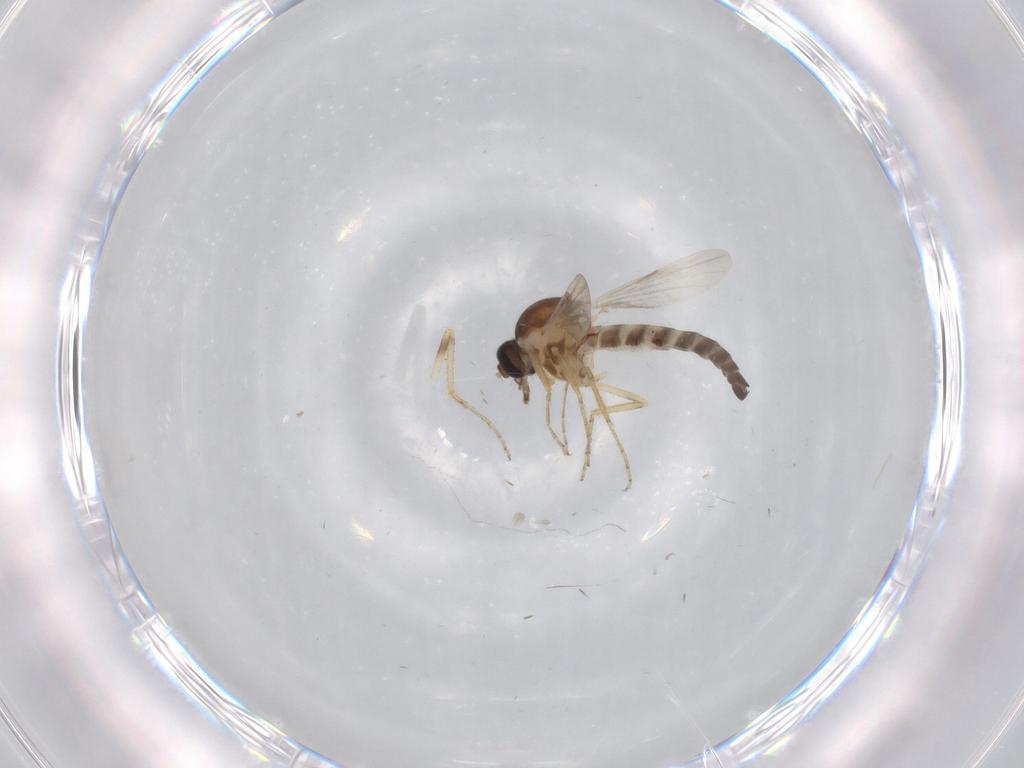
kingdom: Animalia
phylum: Arthropoda
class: Insecta
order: Diptera
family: Ceratopogonidae
